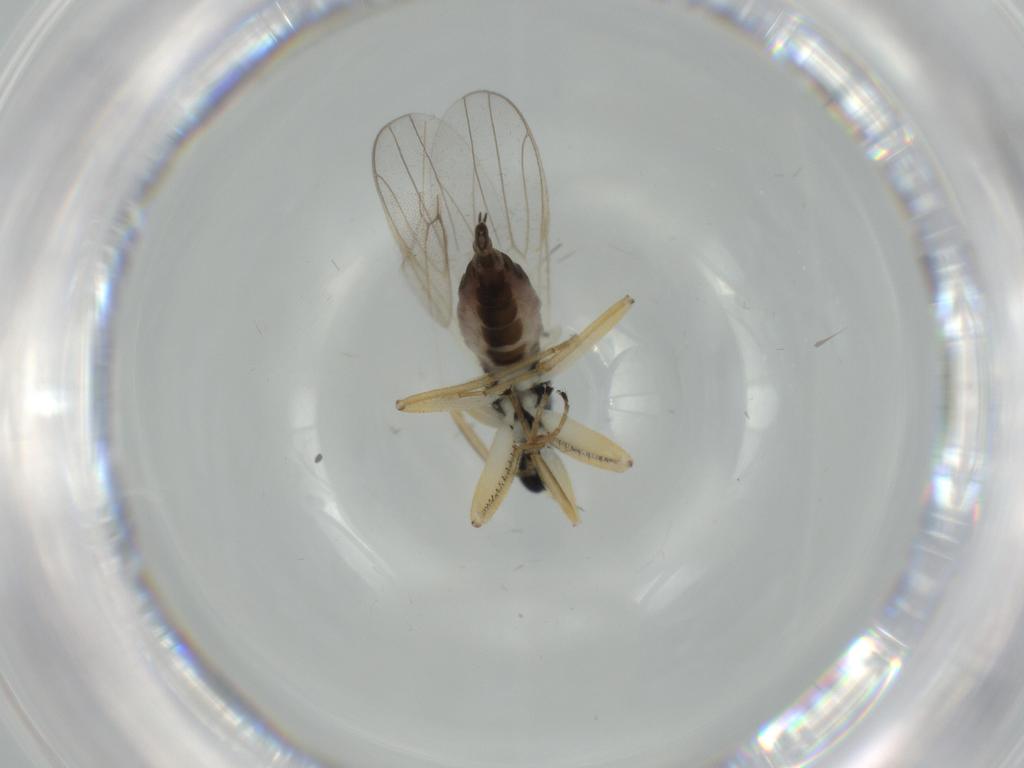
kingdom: Animalia
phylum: Arthropoda
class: Insecta
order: Diptera
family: Hybotidae
